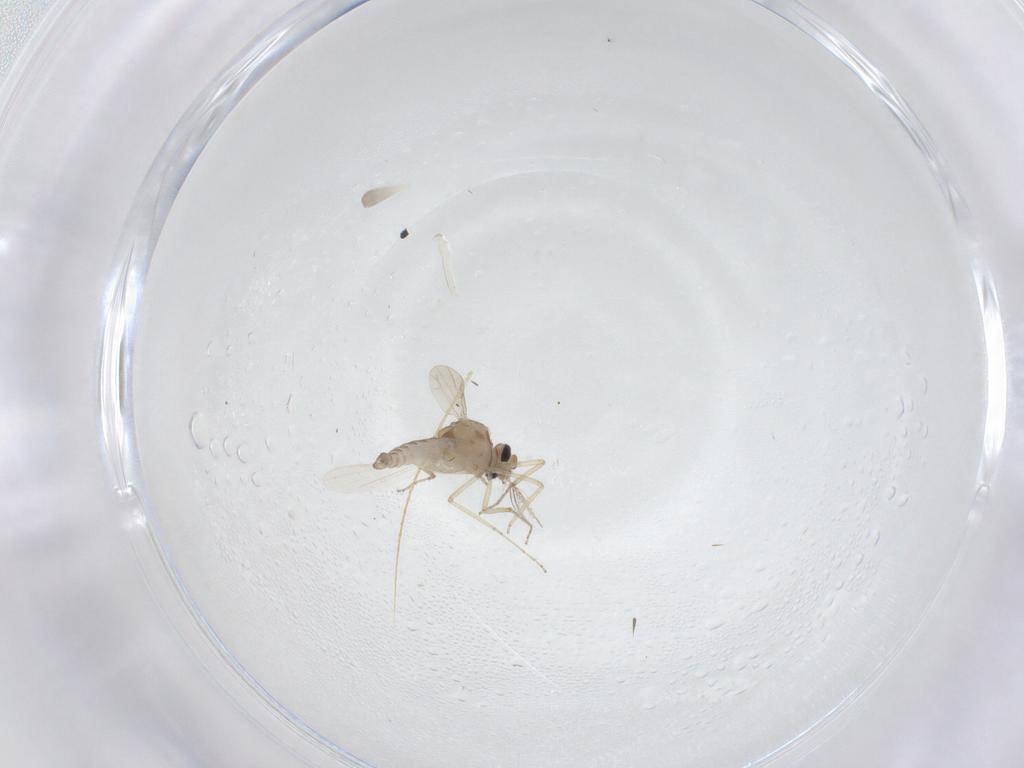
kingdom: Animalia
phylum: Arthropoda
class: Insecta
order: Diptera
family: Ceratopogonidae
